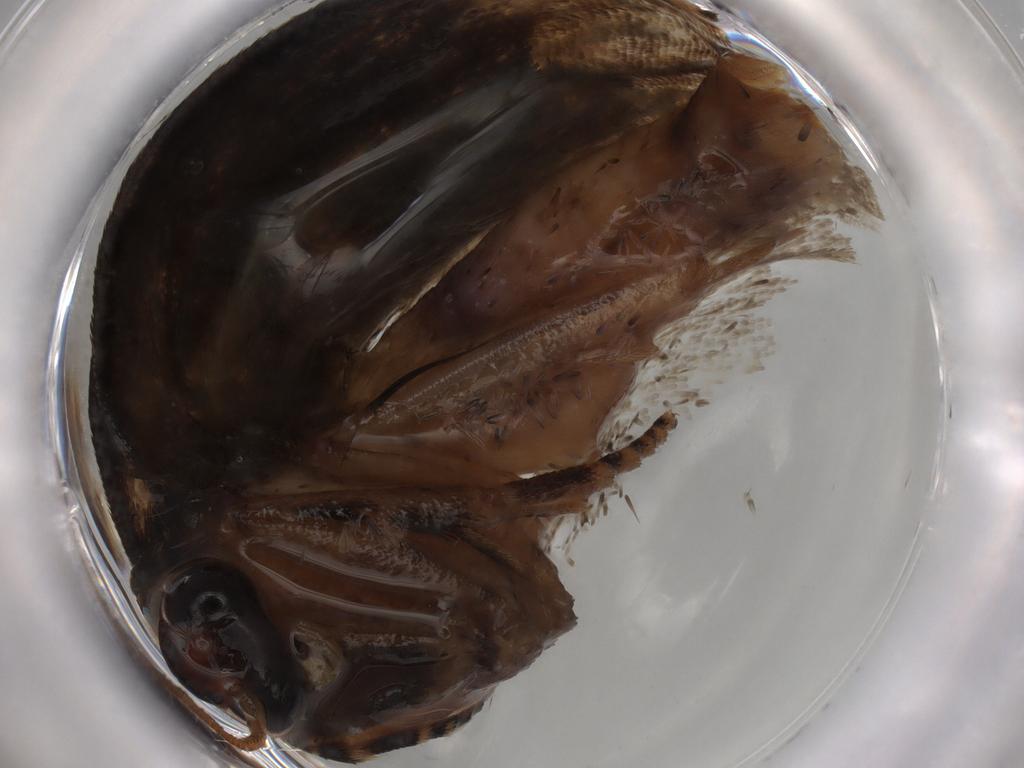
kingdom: Animalia
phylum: Arthropoda
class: Insecta
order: Lepidoptera
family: Tortricidae
